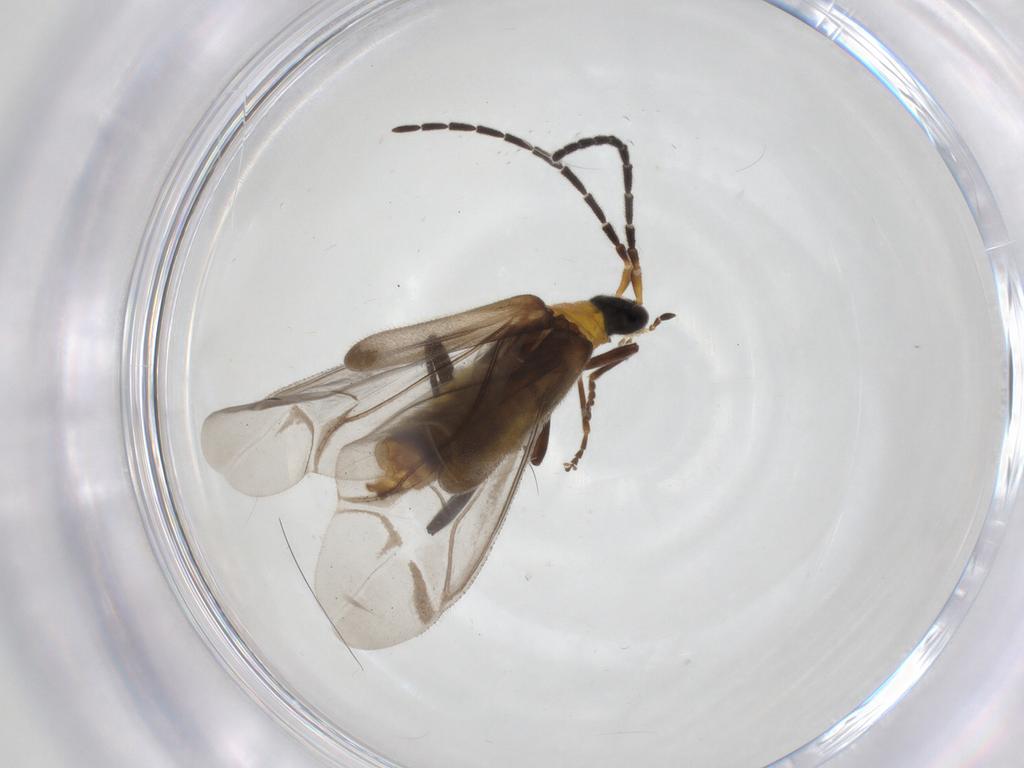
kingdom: Animalia
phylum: Arthropoda
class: Insecta
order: Coleoptera
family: Cantharidae
